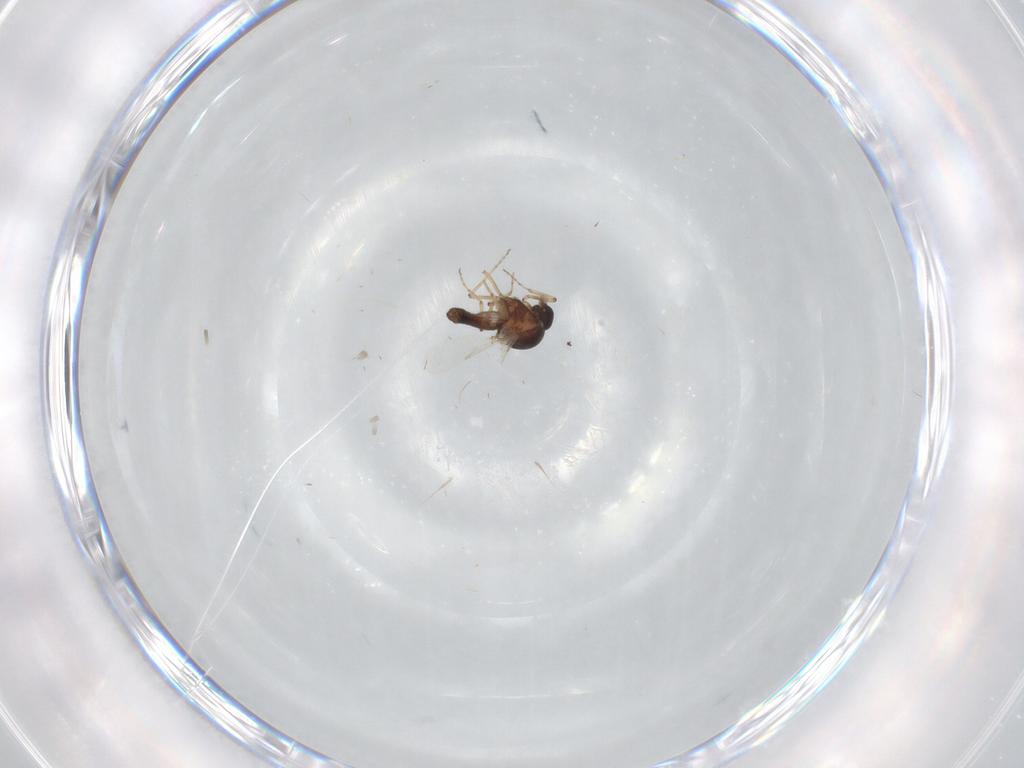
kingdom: Animalia
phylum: Arthropoda
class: Insecta
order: Diptera
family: Ceratopogonidae
